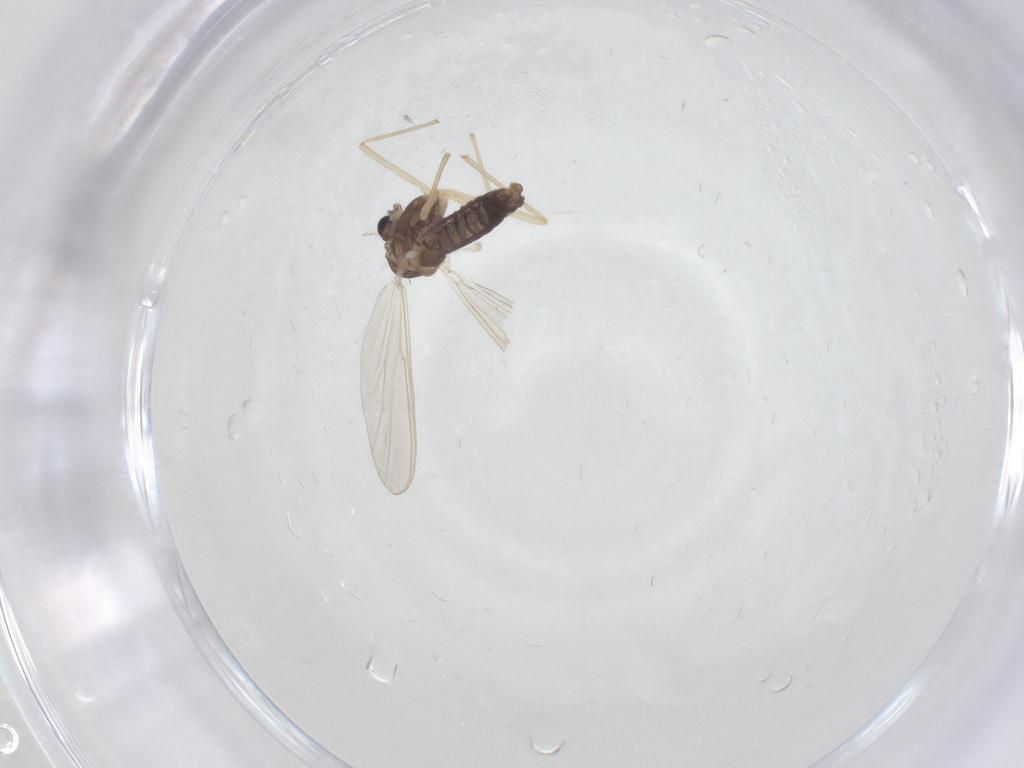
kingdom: Animalia
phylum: Arthropoda
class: Insecta
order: Diptera
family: Chironomidae
